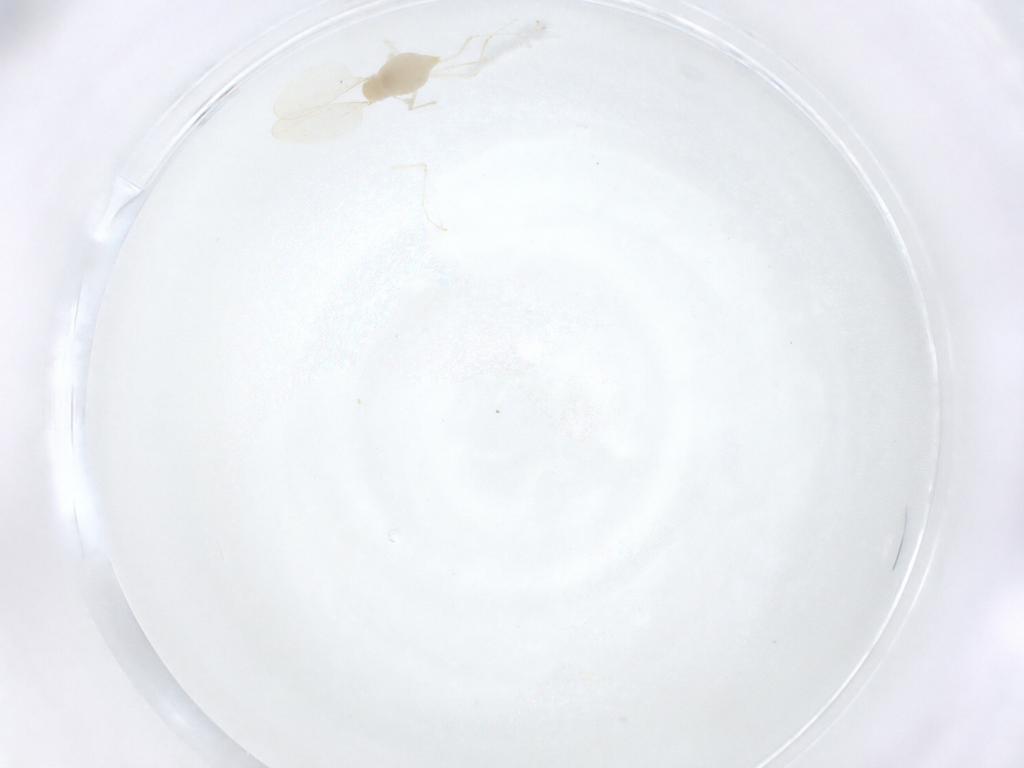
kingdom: Animalia
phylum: Arthropoda
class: Insecta
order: Diptera
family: Cecidomyiidae
